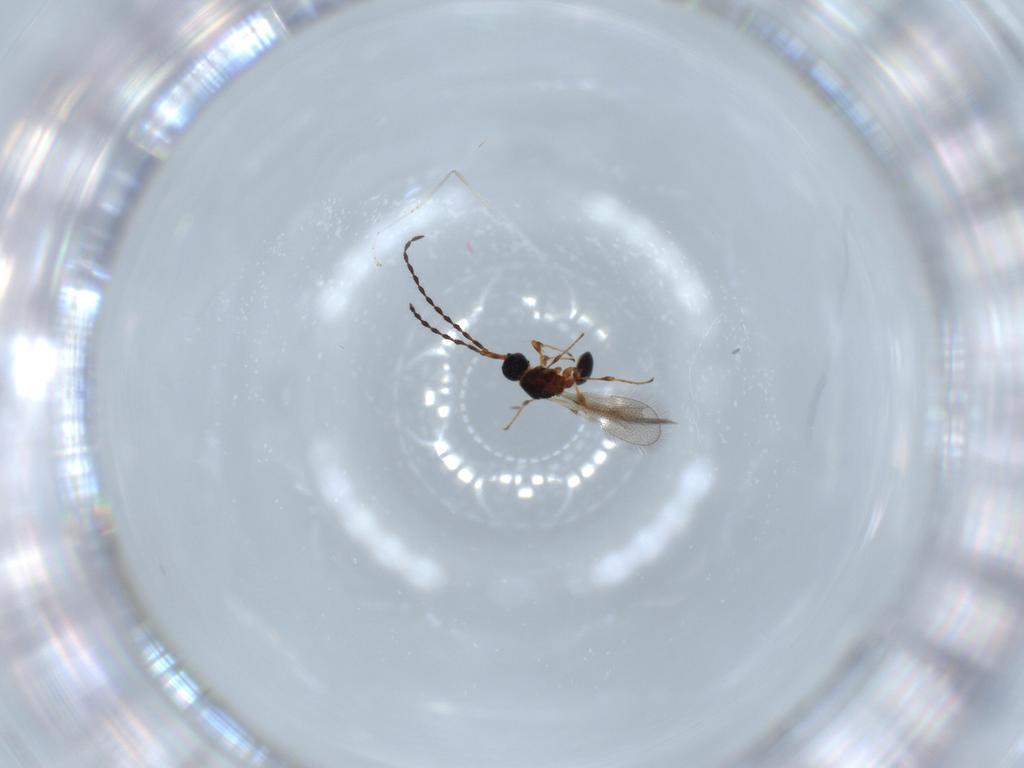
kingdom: Animalia
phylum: Arthropoda
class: Insecta
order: Hymenoptera
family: Diapriidae
